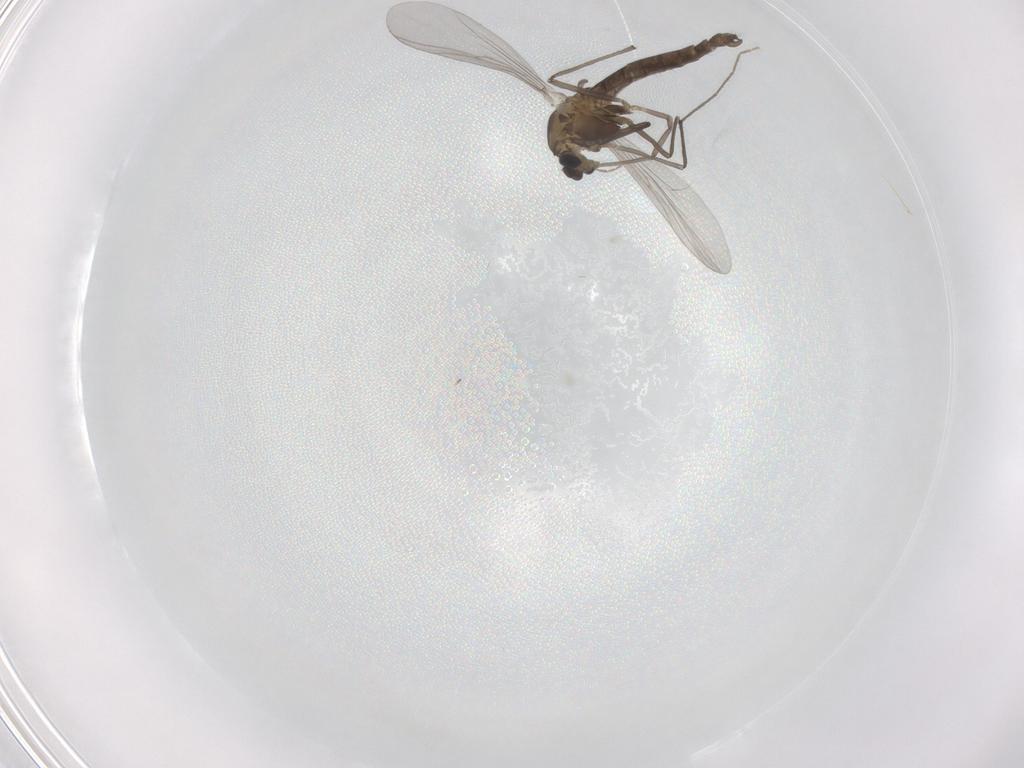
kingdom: Animalia
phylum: Arthropoda
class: Insecta
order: Diptera
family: Chironomidae
